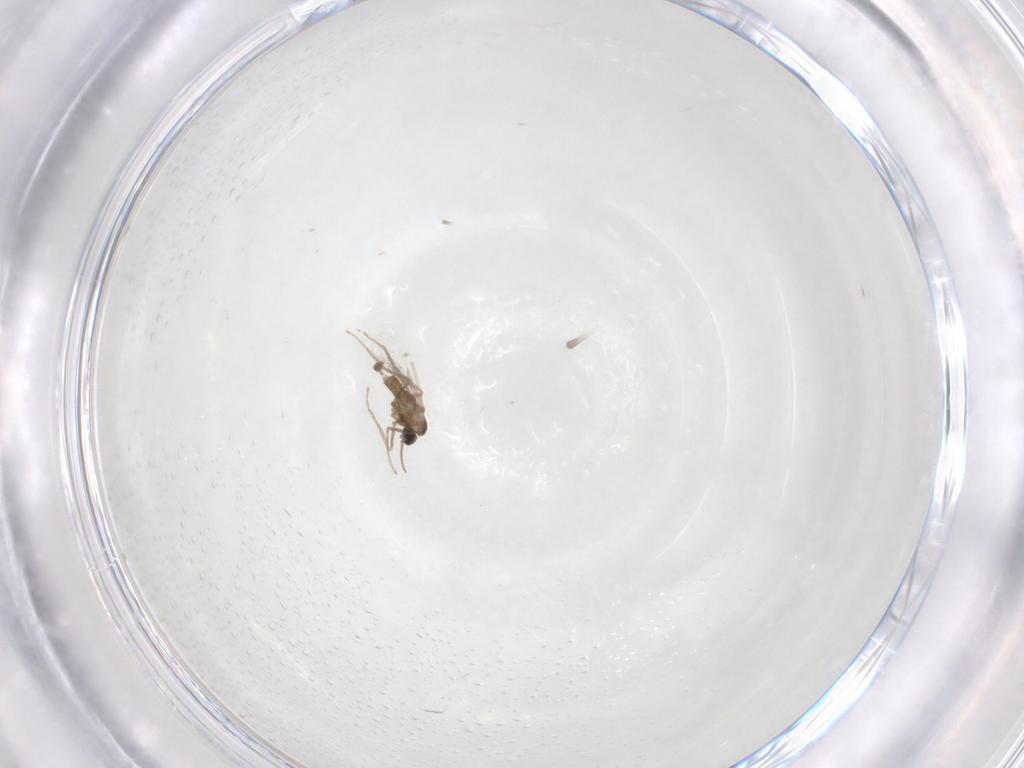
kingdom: Animalia
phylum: Arthropoda
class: Insecta
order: Diptera
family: Cecidomyiidae
